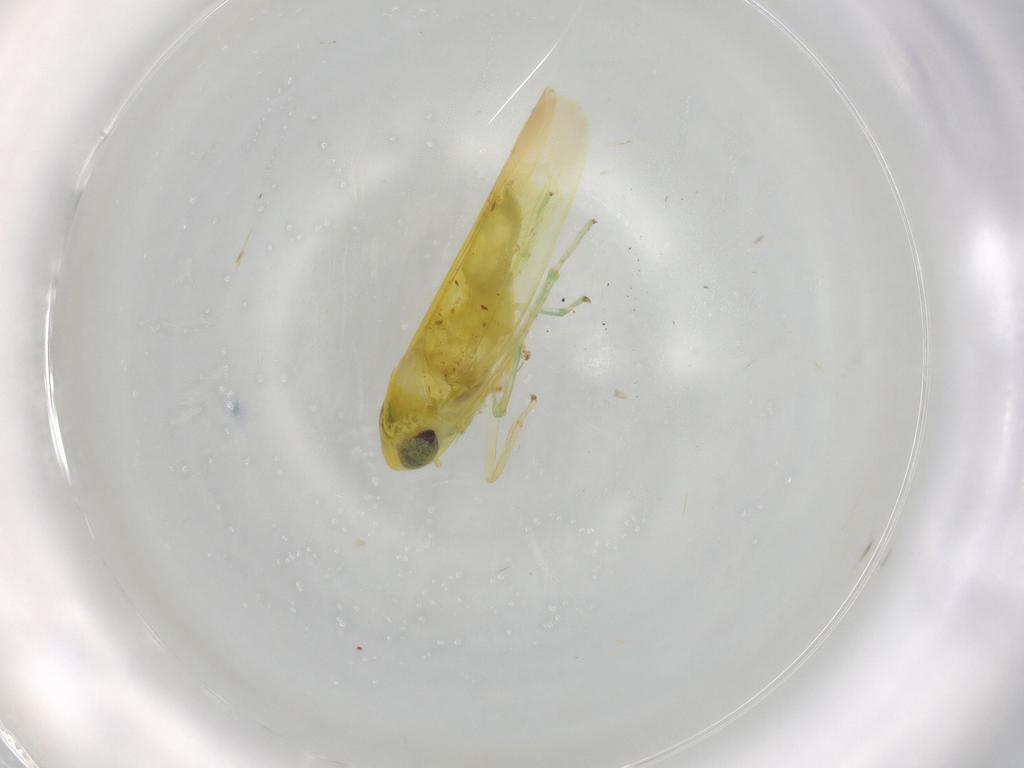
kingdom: Animalia
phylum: Arthropoda
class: Insecta
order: Hemiptera
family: Cicadellidae
